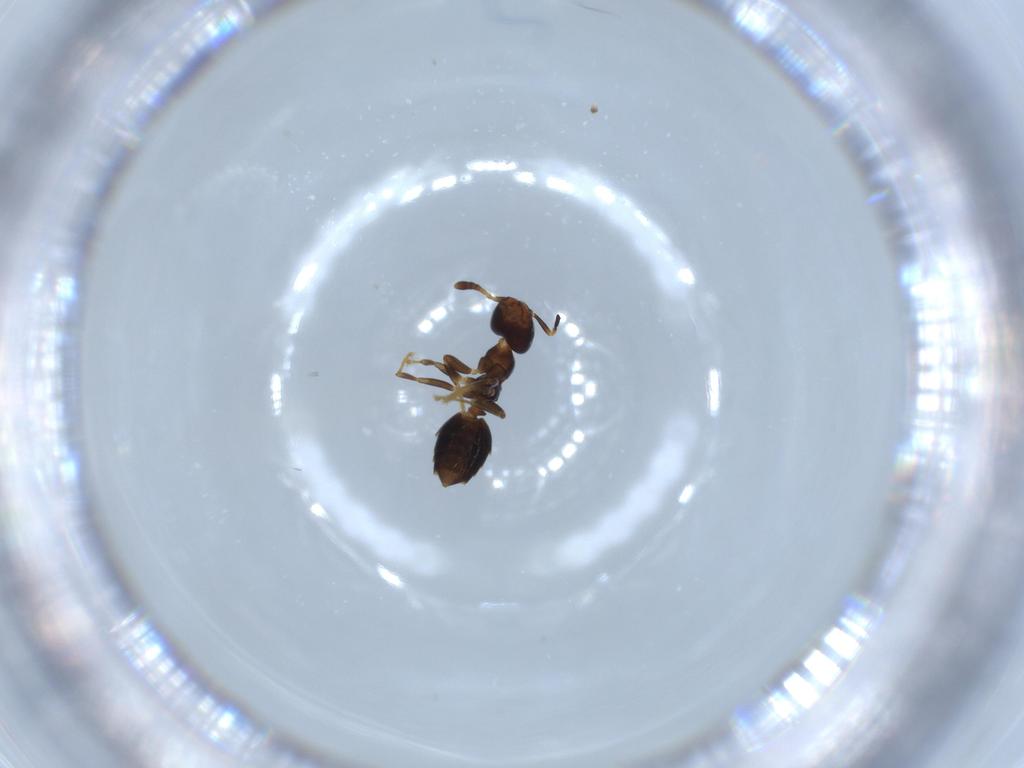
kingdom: Animalia
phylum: Arthropoda
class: Insecta
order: Hymenoptera
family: Formicidae
